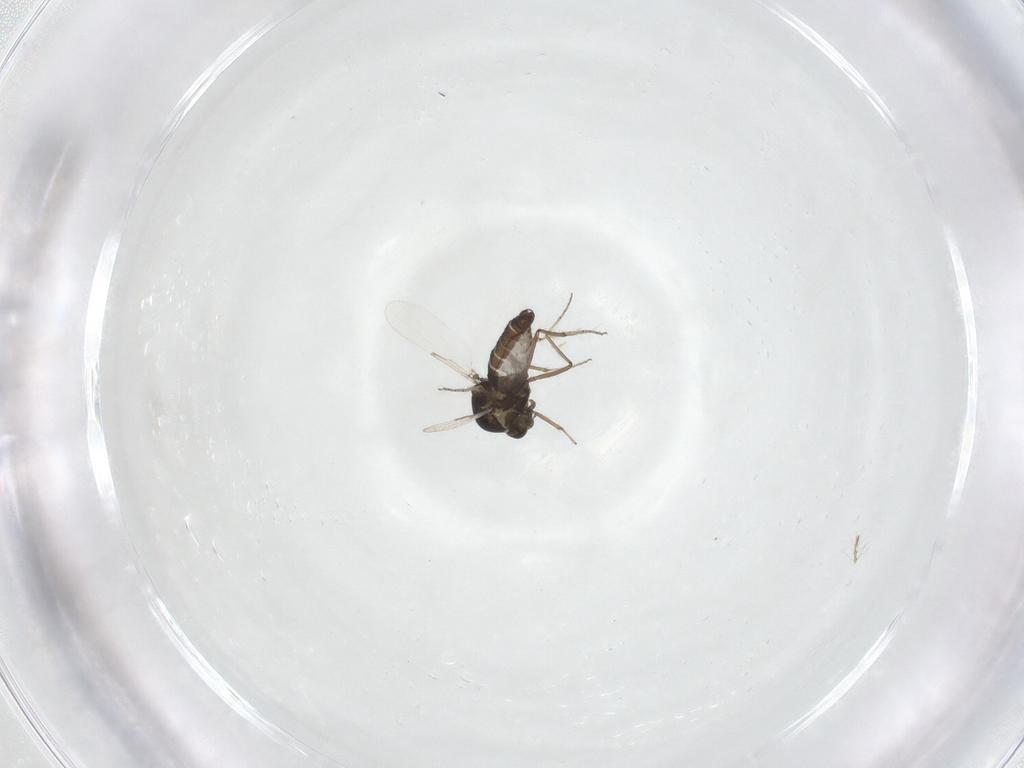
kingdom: Animalia
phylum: Arthropoda
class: Insecta
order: Diptera
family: Ceratopogonidae
